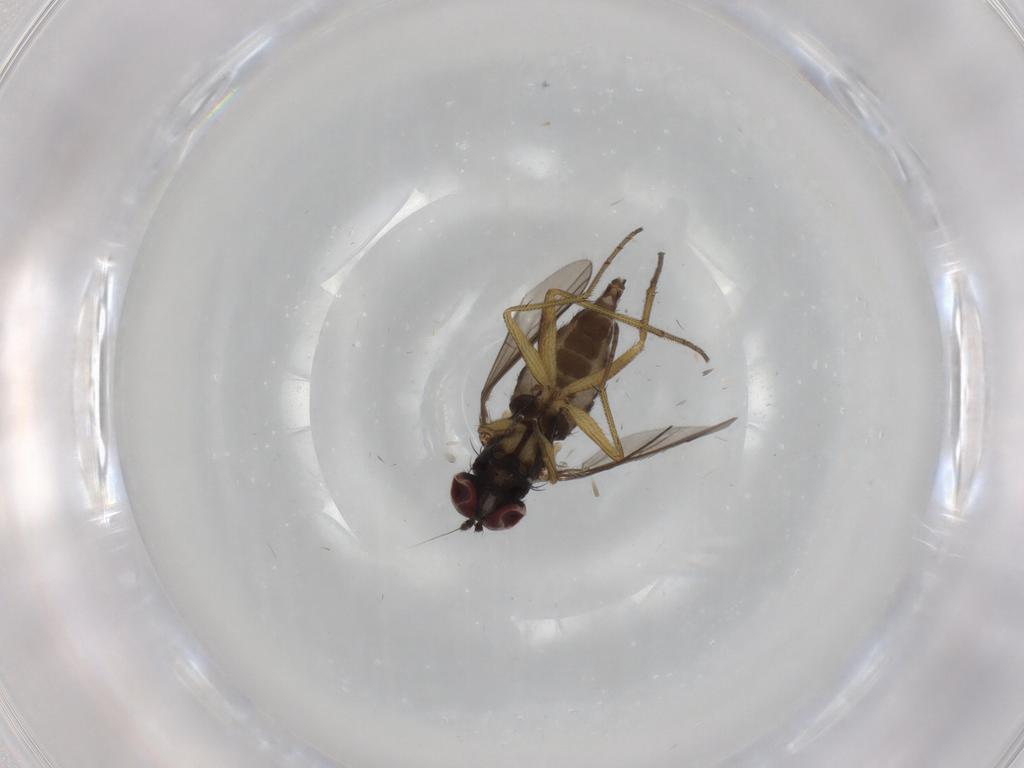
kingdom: Animalia
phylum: Arthropoda
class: Insecta
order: Diptera
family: Dolichopodidae
